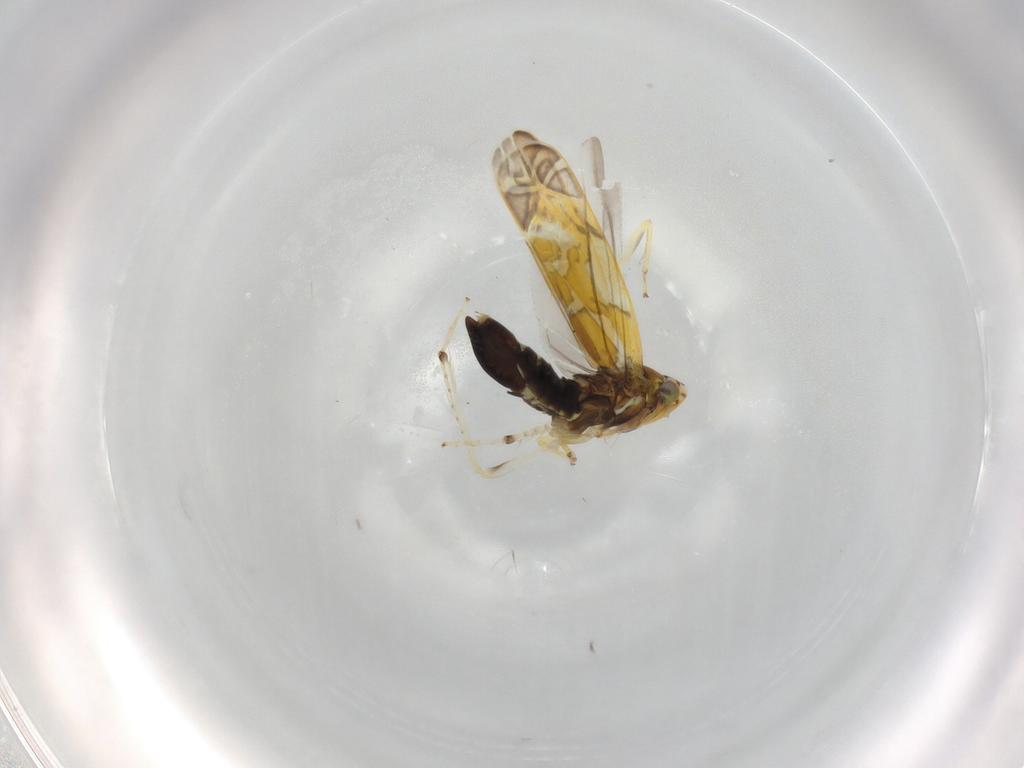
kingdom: Animalia
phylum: Arthropoda
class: Insecta
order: Hemiptera
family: Cicadellidae
